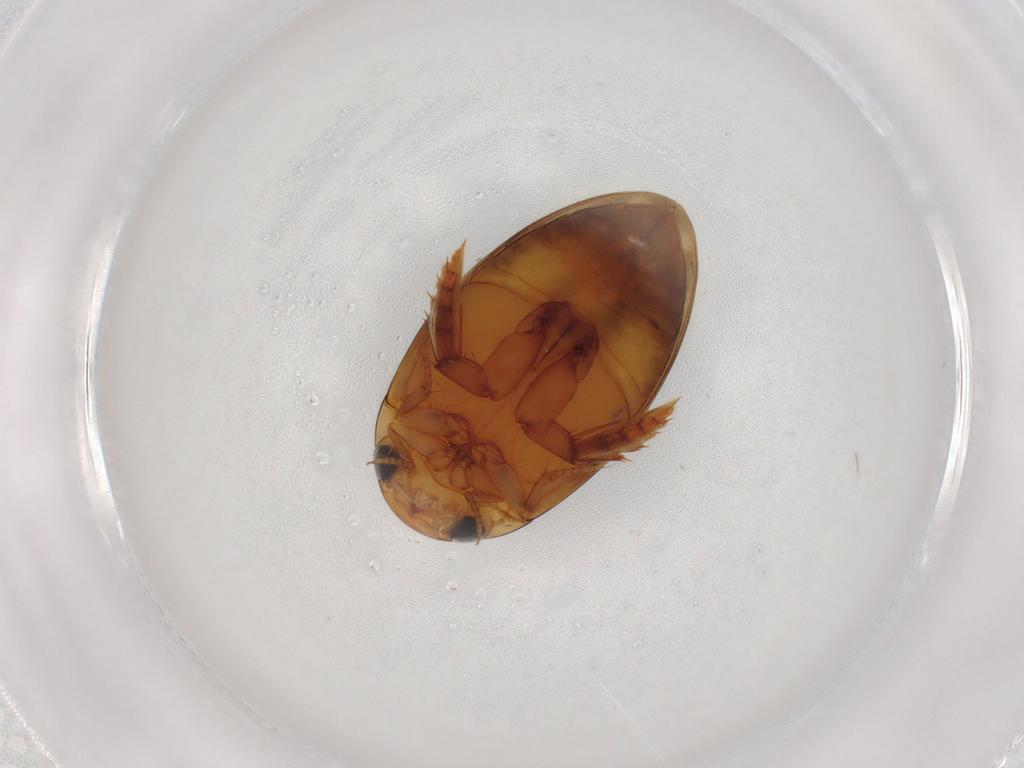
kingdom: Animalia
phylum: Arthropoda
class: Insecta
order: Coleoptera
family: Dytiscidae
